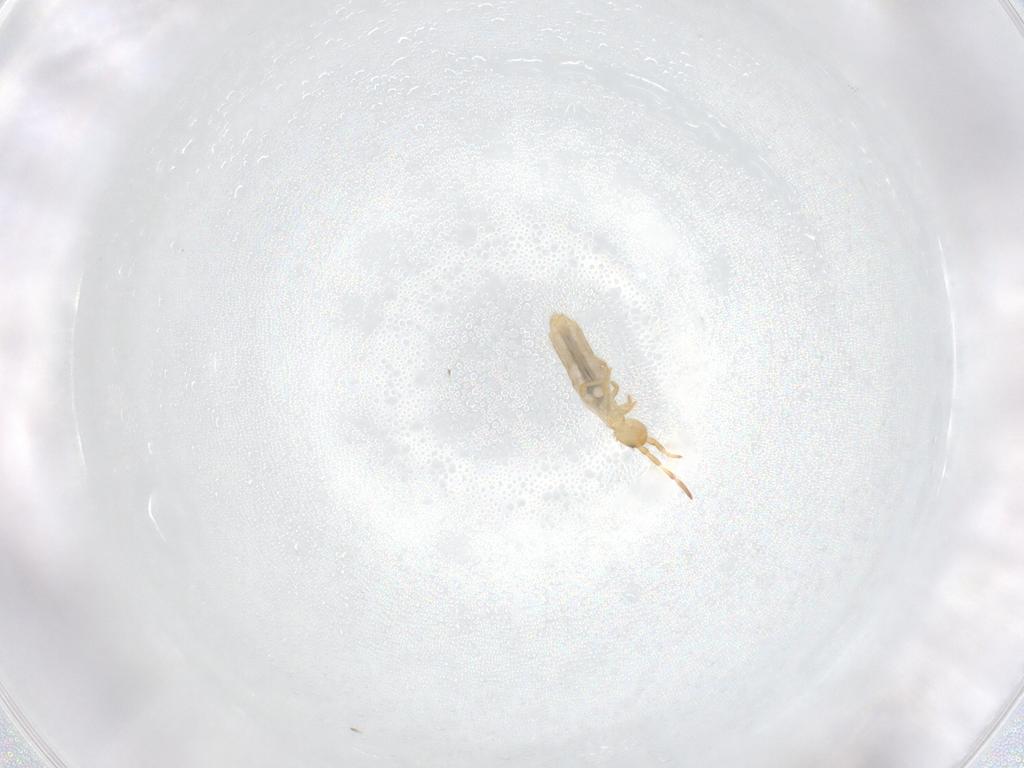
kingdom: Animalia
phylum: Arthropoda
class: Collembola
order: Entomobryomorpha
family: Entomobryidae
